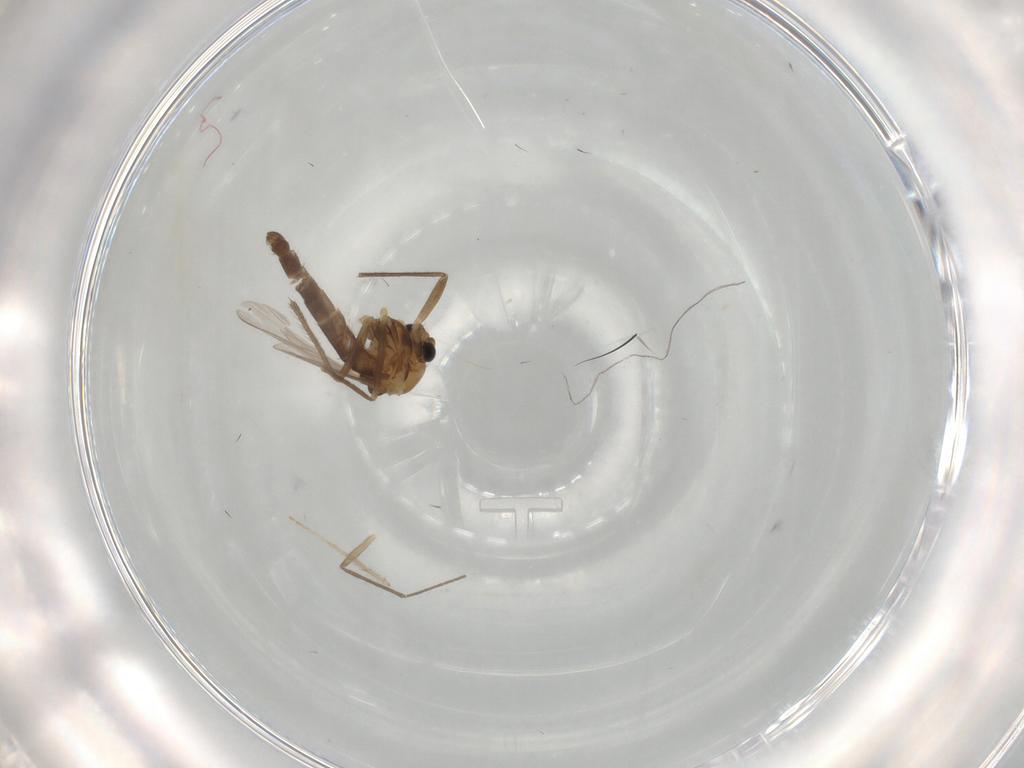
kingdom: Animalia
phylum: Arthropoda
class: Insecta
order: Diptera
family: Chironomidae
